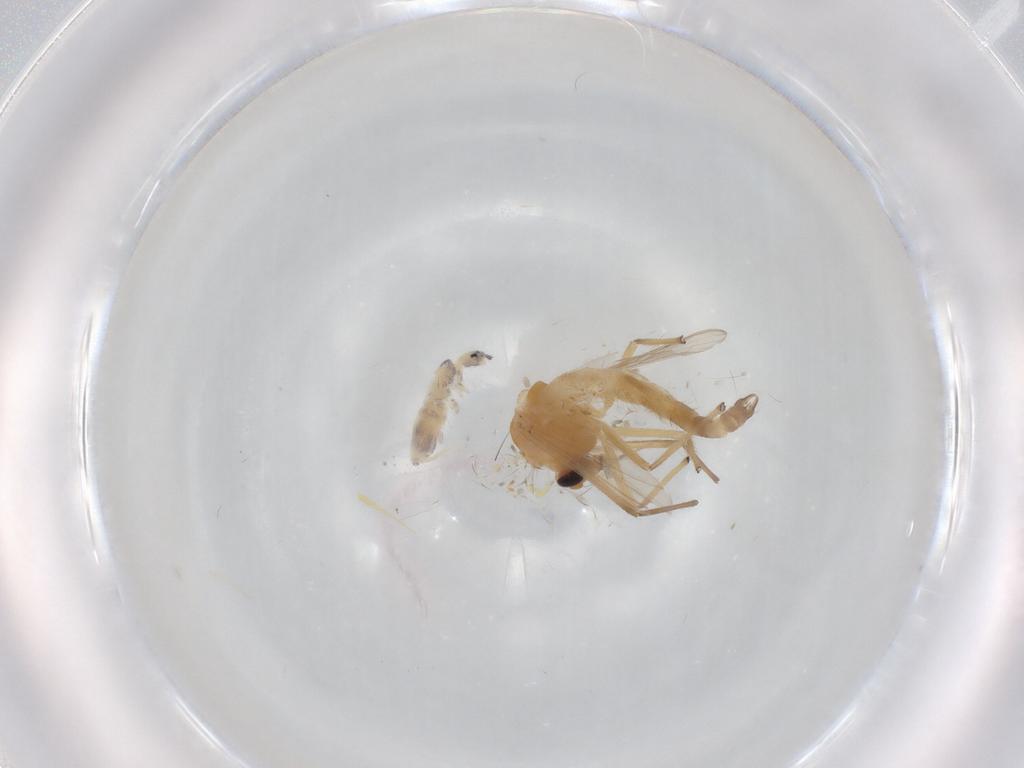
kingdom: Animalia
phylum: Arthropoda
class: Insecta
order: Diptera
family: Chironomidae
